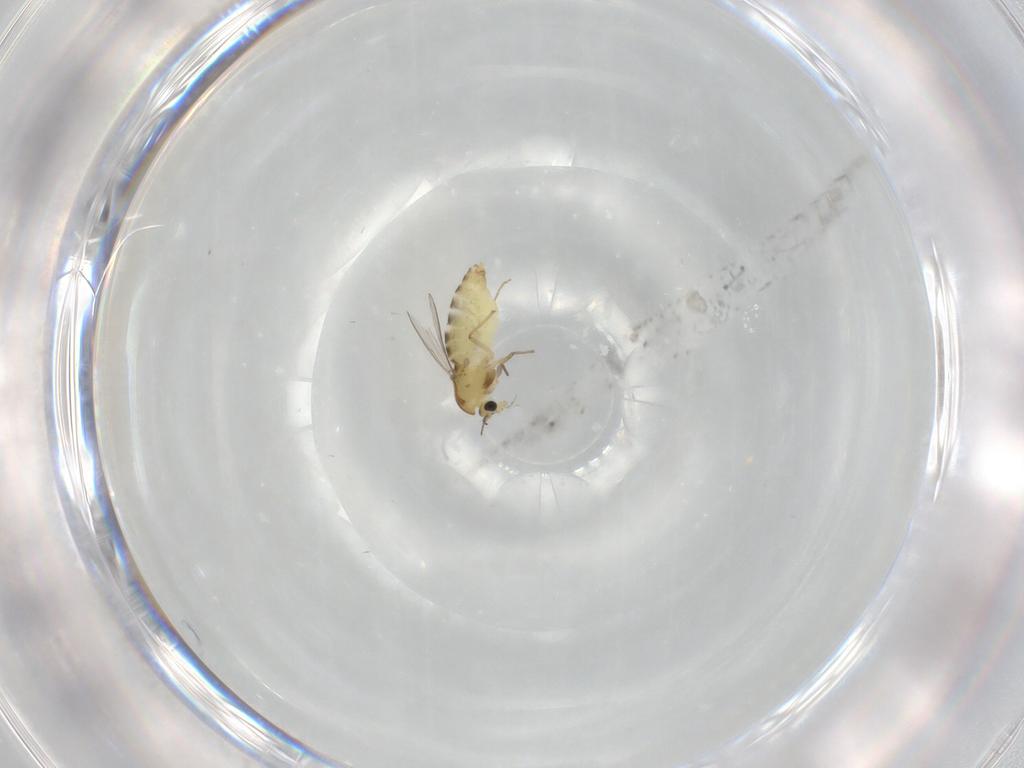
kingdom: Animalia
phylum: Arthropoda
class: Insecta
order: Diptera
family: Chironomidae
